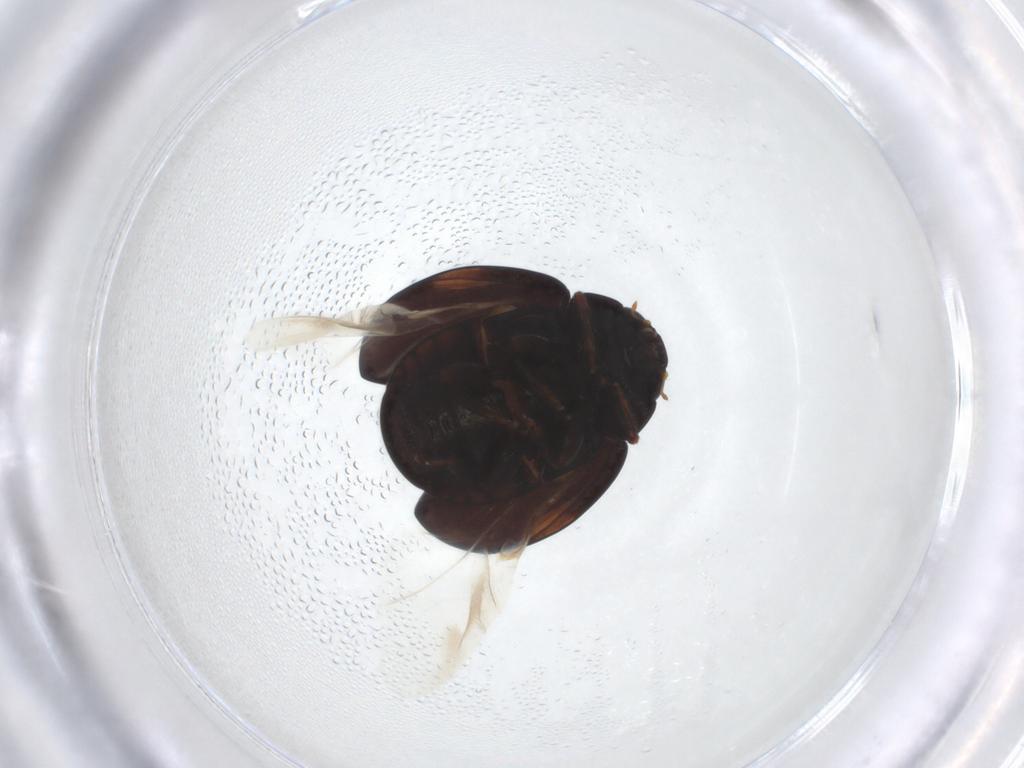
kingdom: Animalia
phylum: Arthropoda
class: Insecta
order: Coleoptera
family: Coccinellidae
